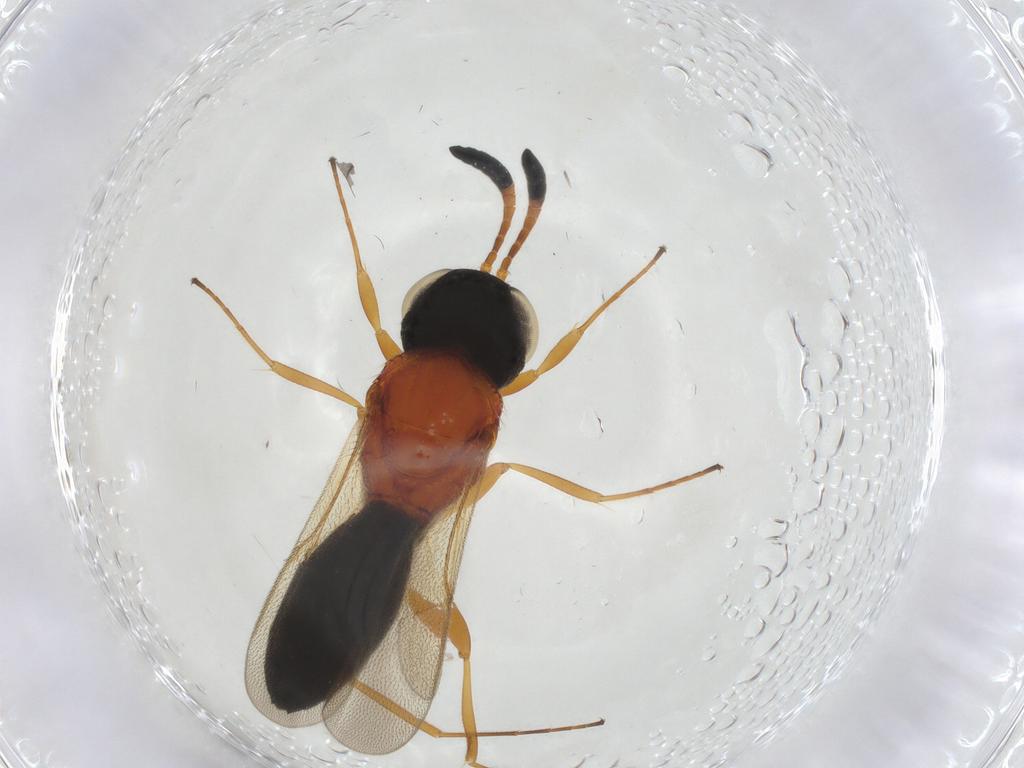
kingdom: Animalia
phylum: Arthropoda
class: Insecta
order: Hymenoptera
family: Scelionidae
